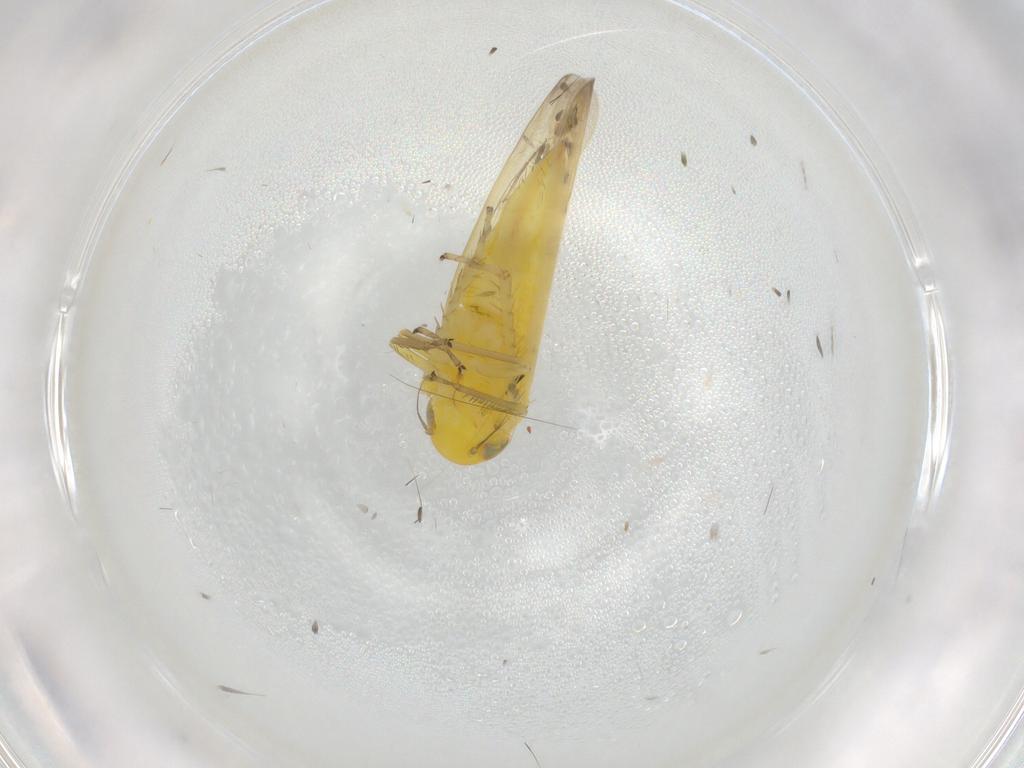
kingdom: Animalia
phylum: Arthropoda
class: Insecta
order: Hemiptera
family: Cicadellidae
